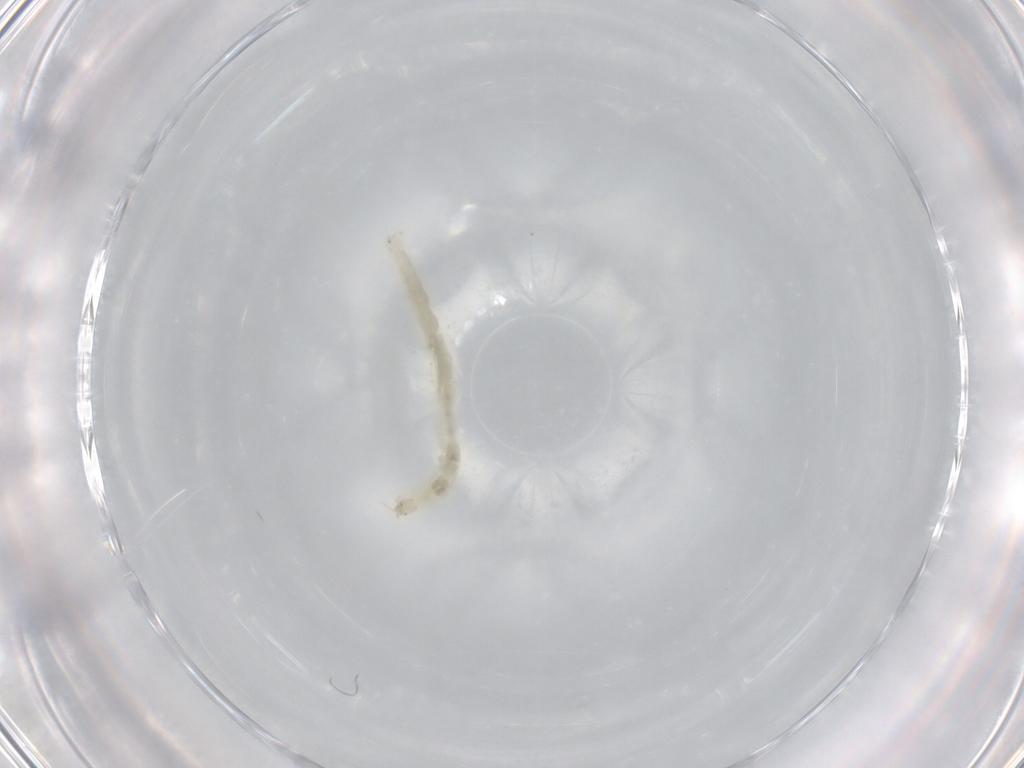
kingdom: Animalia
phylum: Arthropoda
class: Insecta
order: Diptera
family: Chironomidae
